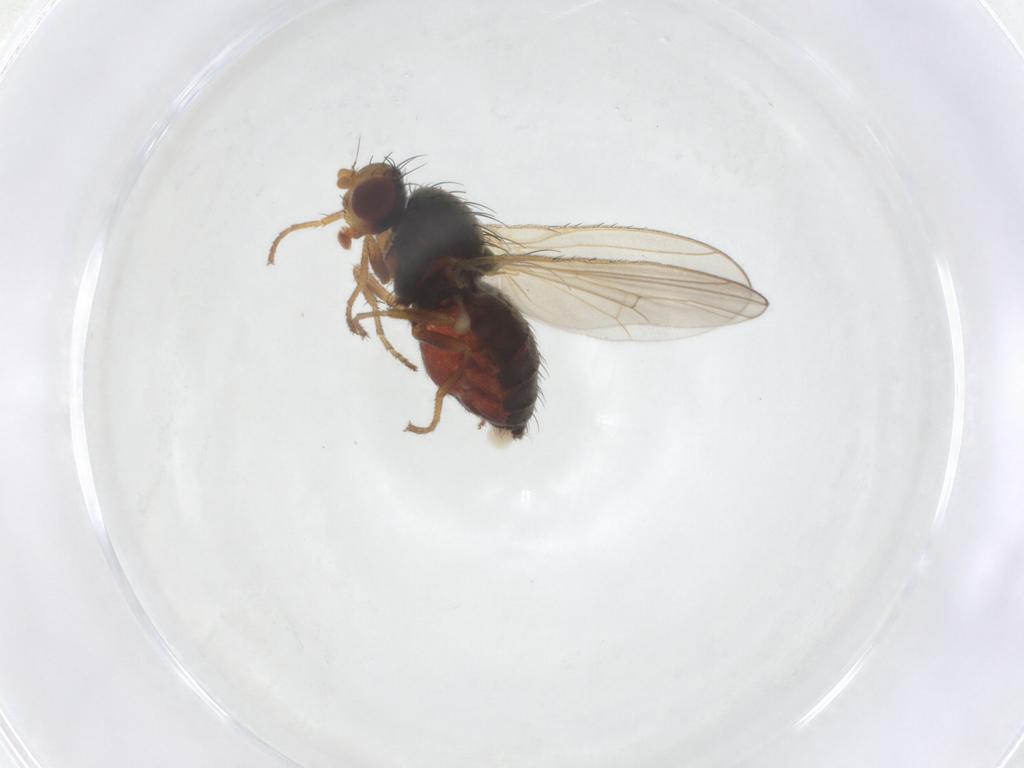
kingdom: Animalia
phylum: Arthropoda
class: Insecta
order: Diptera
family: Heleomyzidae
